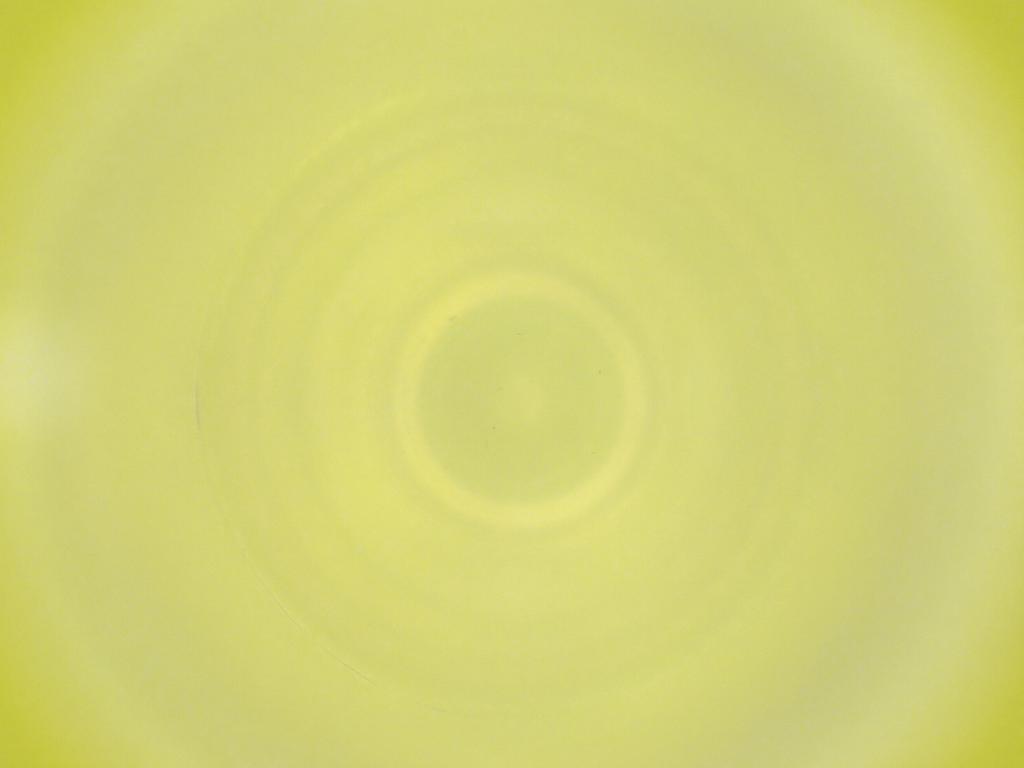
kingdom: Animalia
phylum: Arthropoda
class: Insecta
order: Diptera
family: Cecidomyiidae
